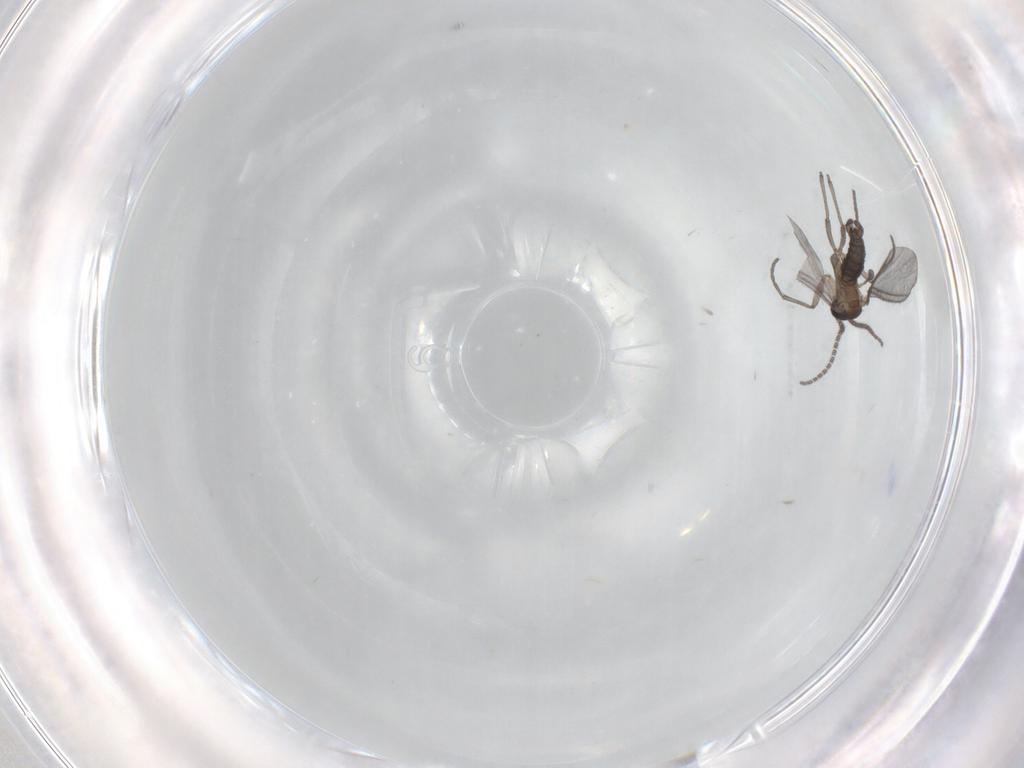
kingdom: Animalia
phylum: Arthropoda
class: Insecta
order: Diptera
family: Sciaridae
